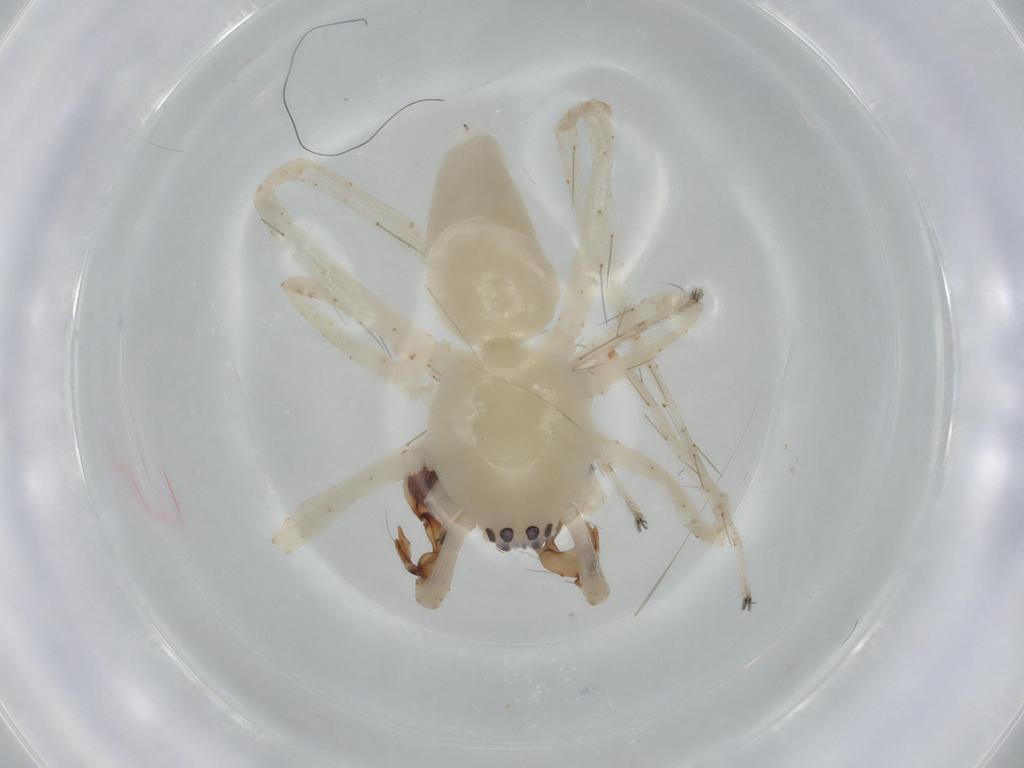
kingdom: Animalia
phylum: Arthropoda
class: Arachnida
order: Araneae
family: Anyphaenidae
